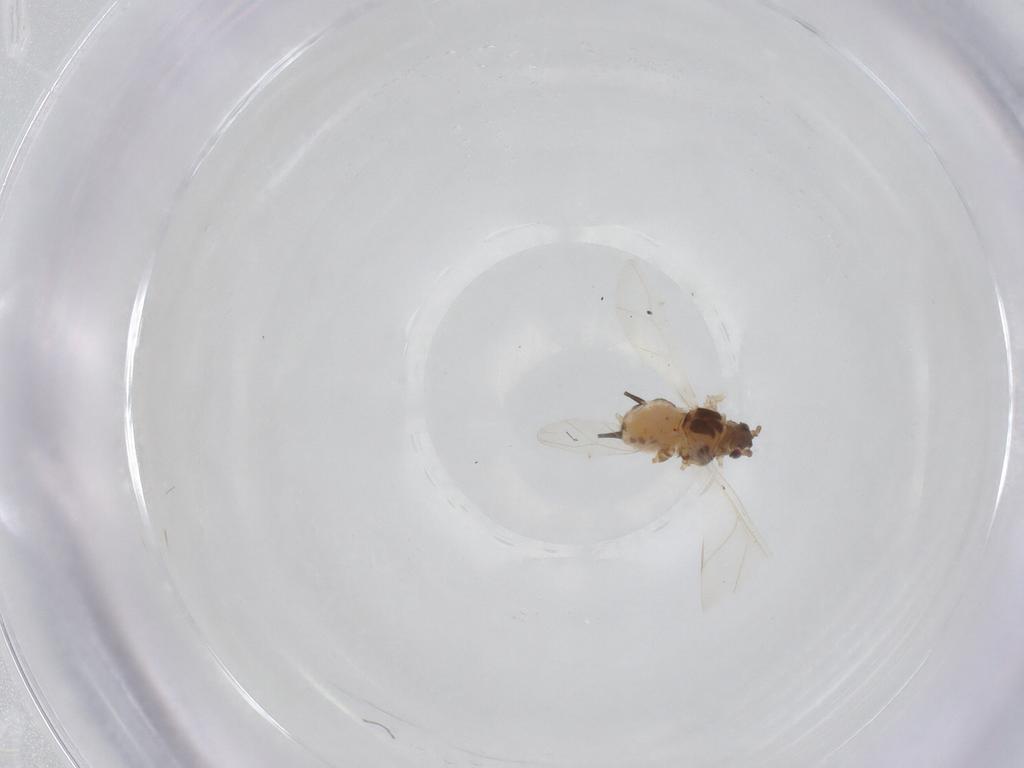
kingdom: Animalia
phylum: Arthropoda
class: Insecta
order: Hemiptera
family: Aphididae
